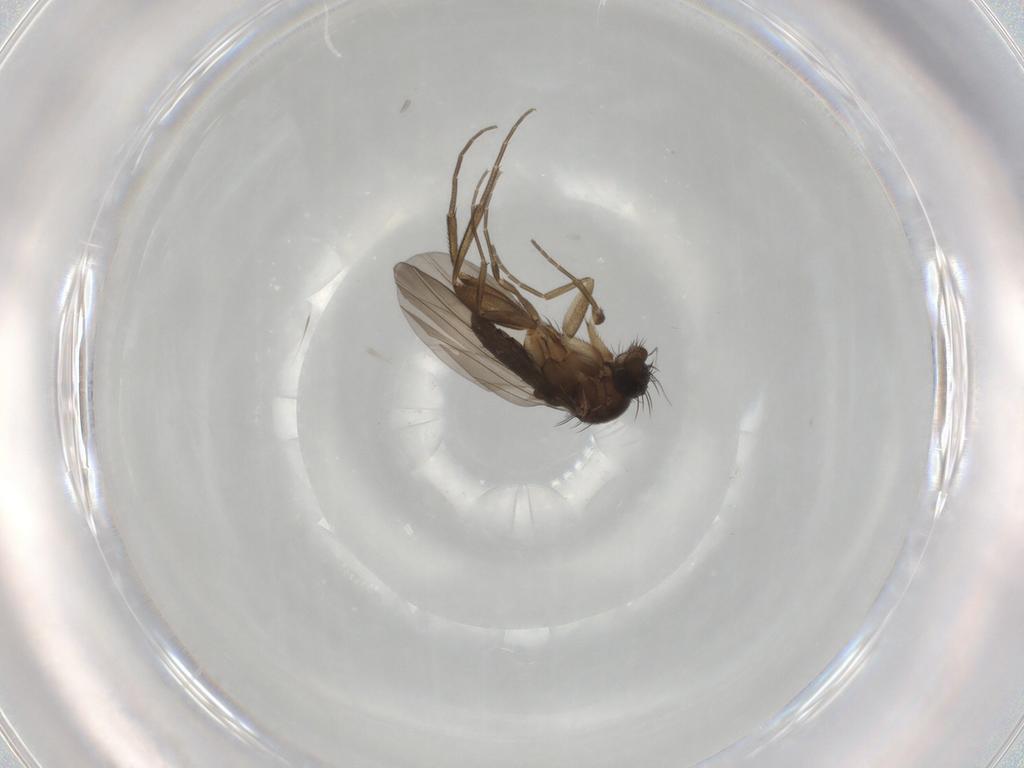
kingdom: Animalia
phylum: Arthropoda
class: Insecta
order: Diptera
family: Phoridae
